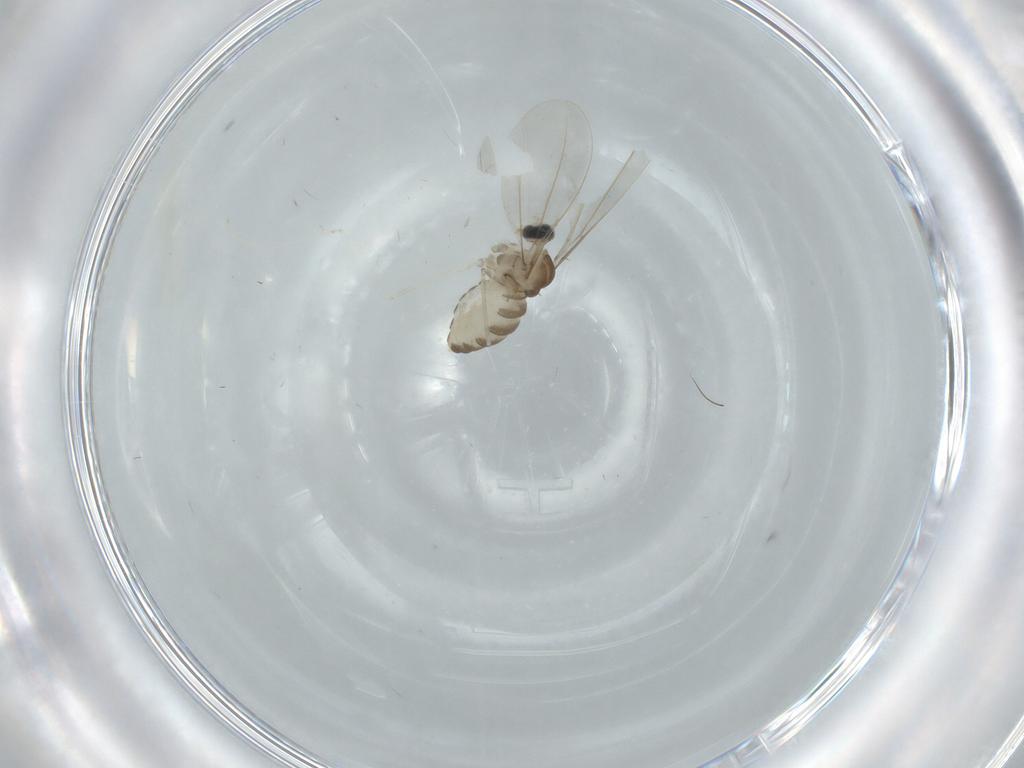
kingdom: Animalia
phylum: Arthropoda
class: Insecta
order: Diptera
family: Cecidomyiidae
